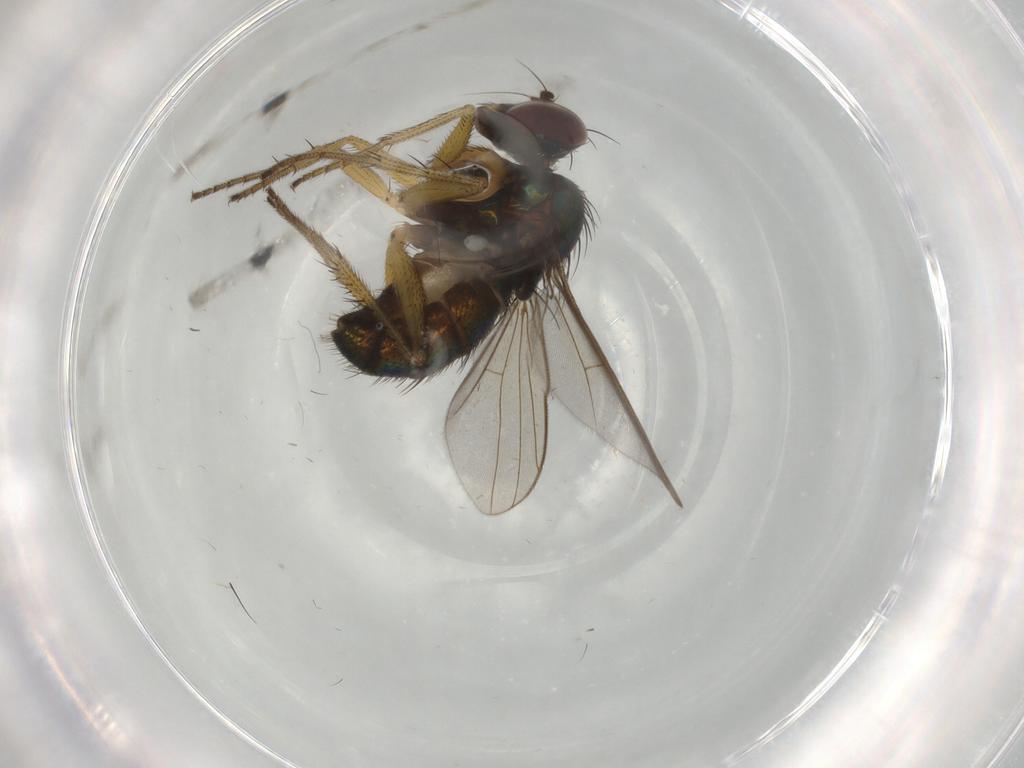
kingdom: Animalia
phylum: Arthropoda
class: Insecta
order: Diptera
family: Dolichopodidae
